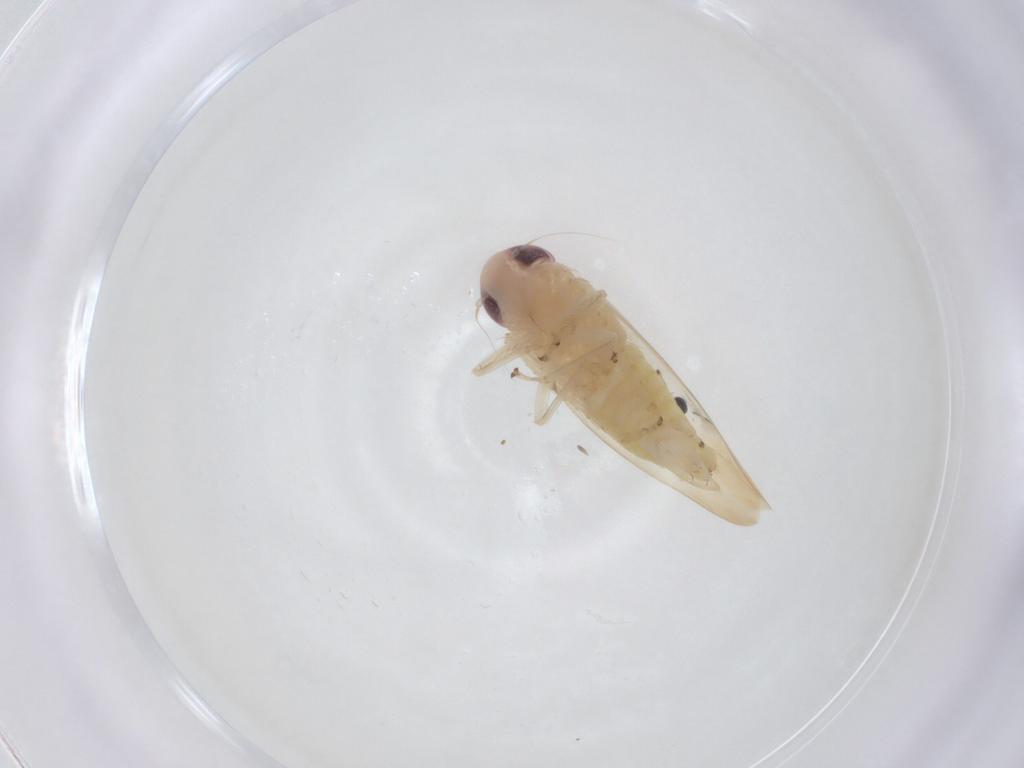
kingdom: Animalia
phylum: Arthropoda
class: Insecta
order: Hemiptera
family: Cicadellidae
